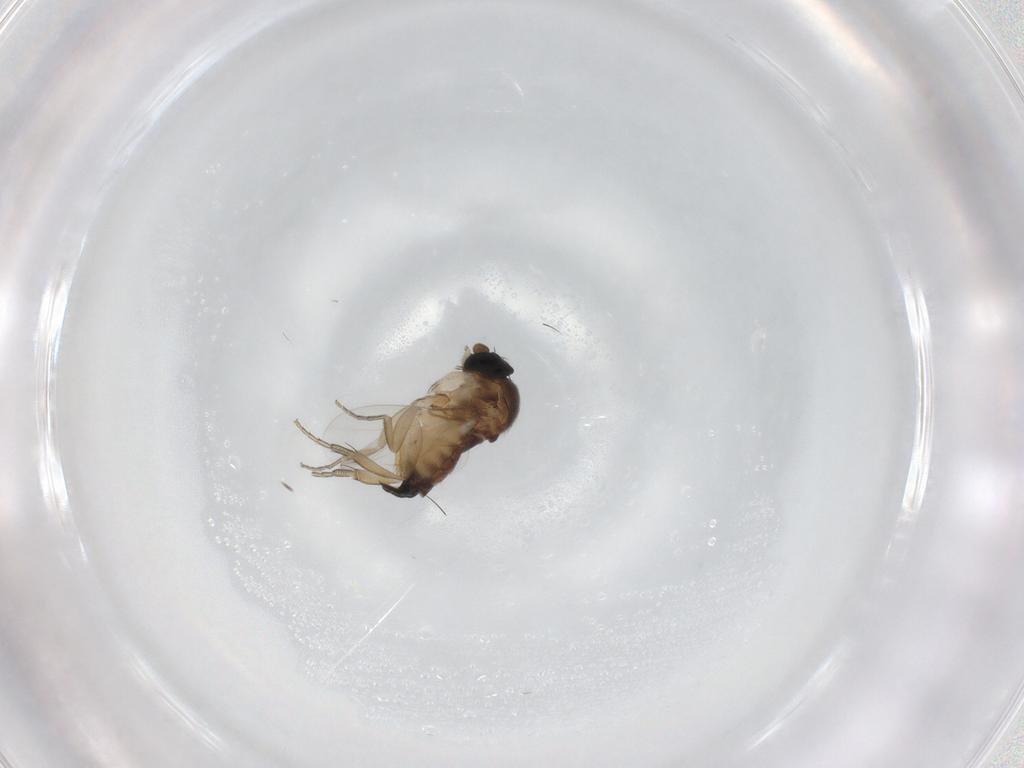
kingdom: Animalia
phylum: Arthropoda
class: Insecta
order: Diptera
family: Phoridae
